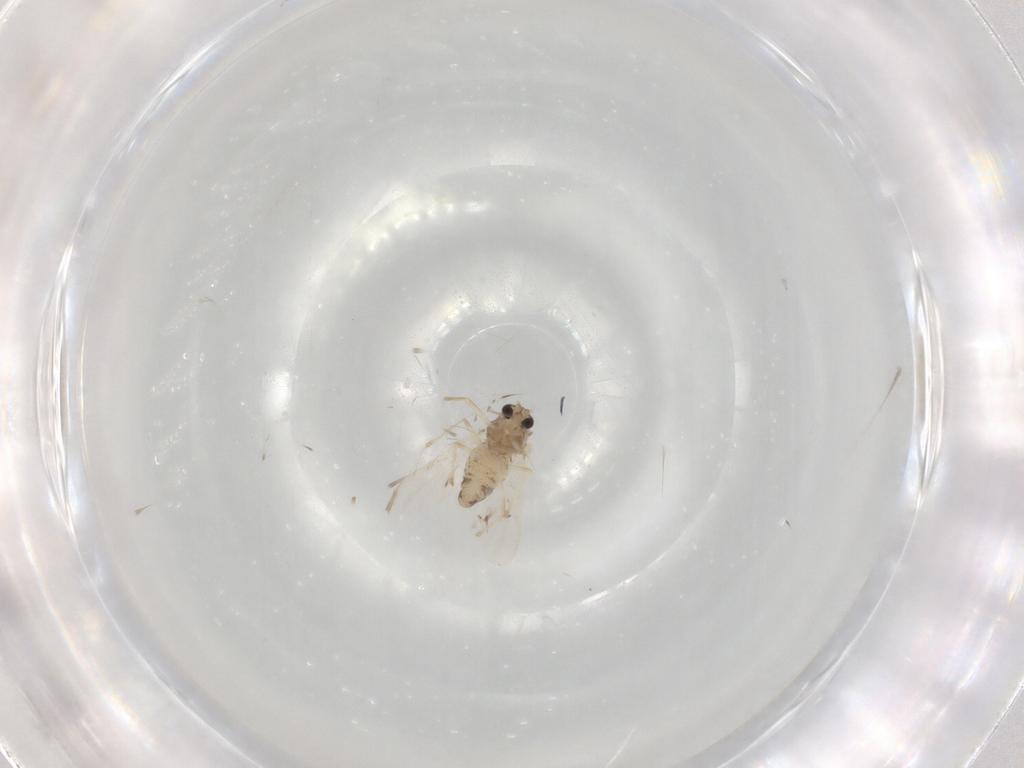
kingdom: Animalia
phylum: Arthropoda
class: Insecta
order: Diptera
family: Chironomidae
